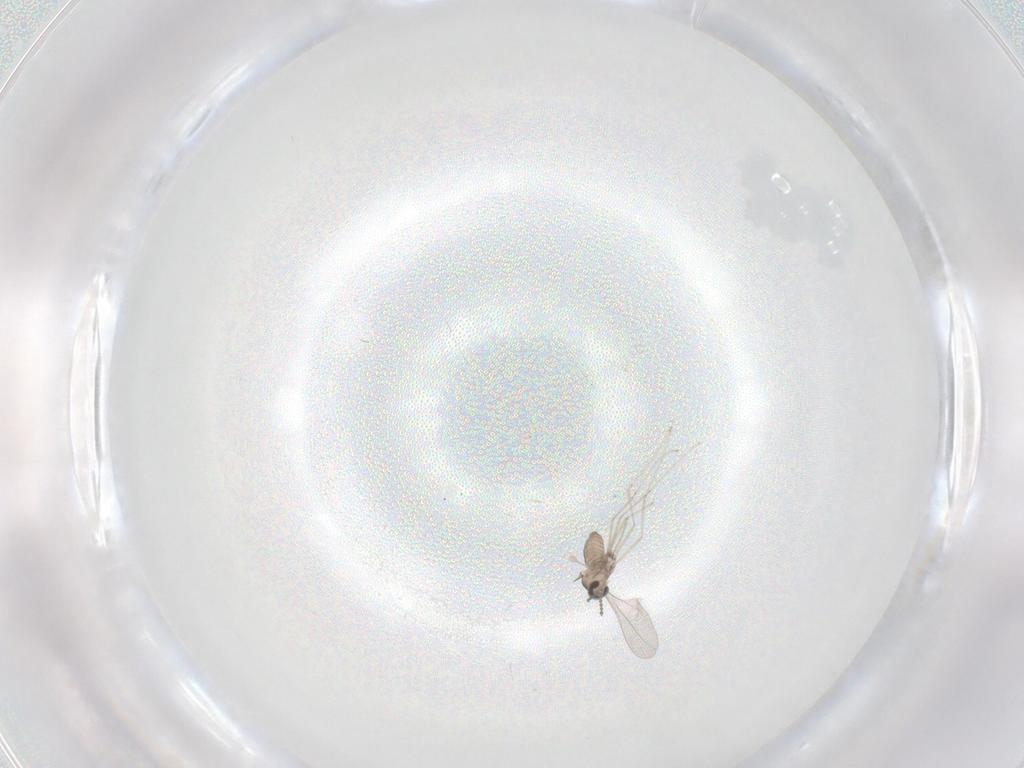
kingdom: Animalia
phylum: Arthropoda
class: Insecta
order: Diptera
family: Cecidomyiidae
